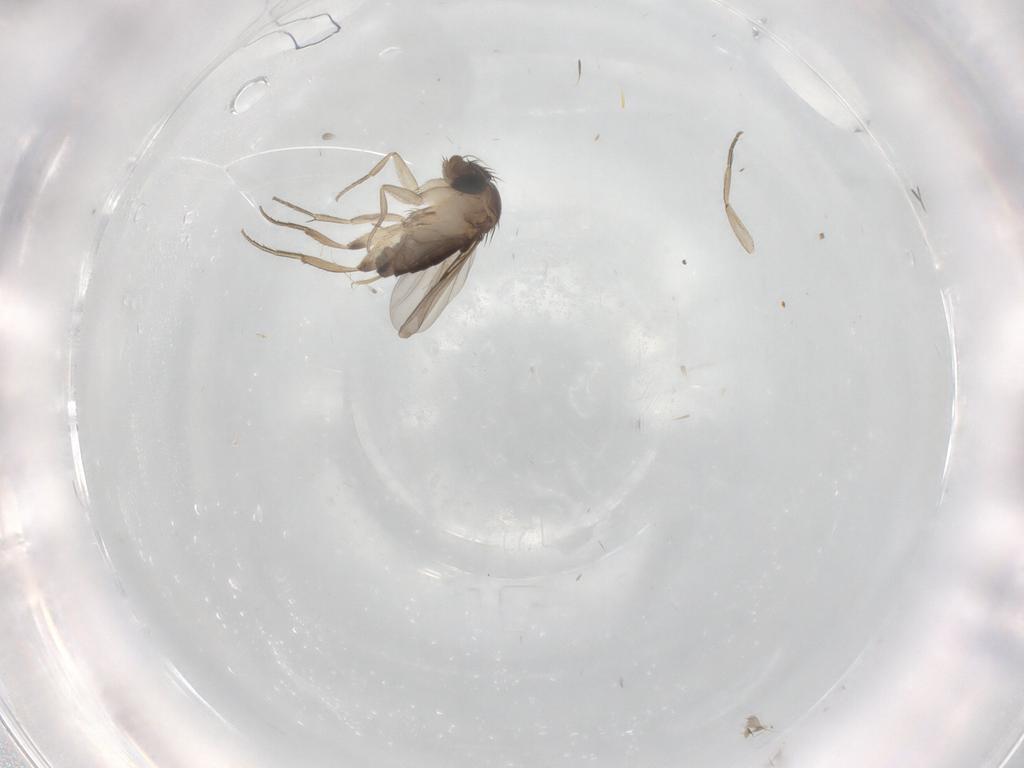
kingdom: Animalia
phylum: Arthropoda
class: Insecta
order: Diptera
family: Phoridae
